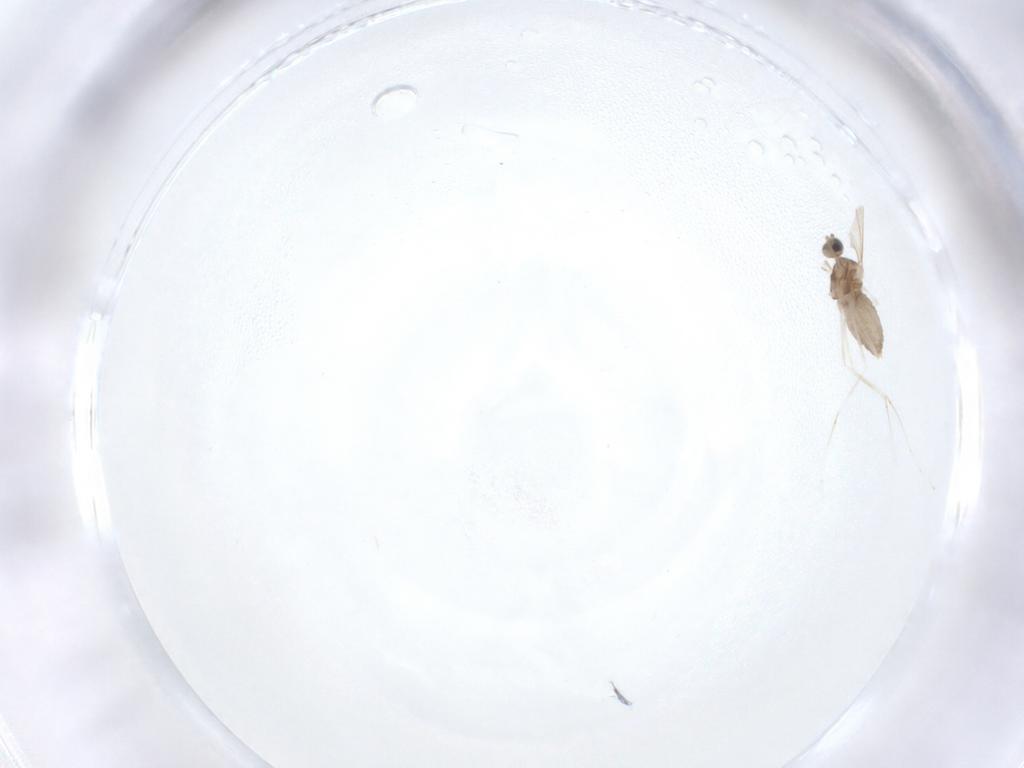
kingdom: Animalia
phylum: Arthropoda
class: Insecta
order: Diptera
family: Cecidomyiidae
